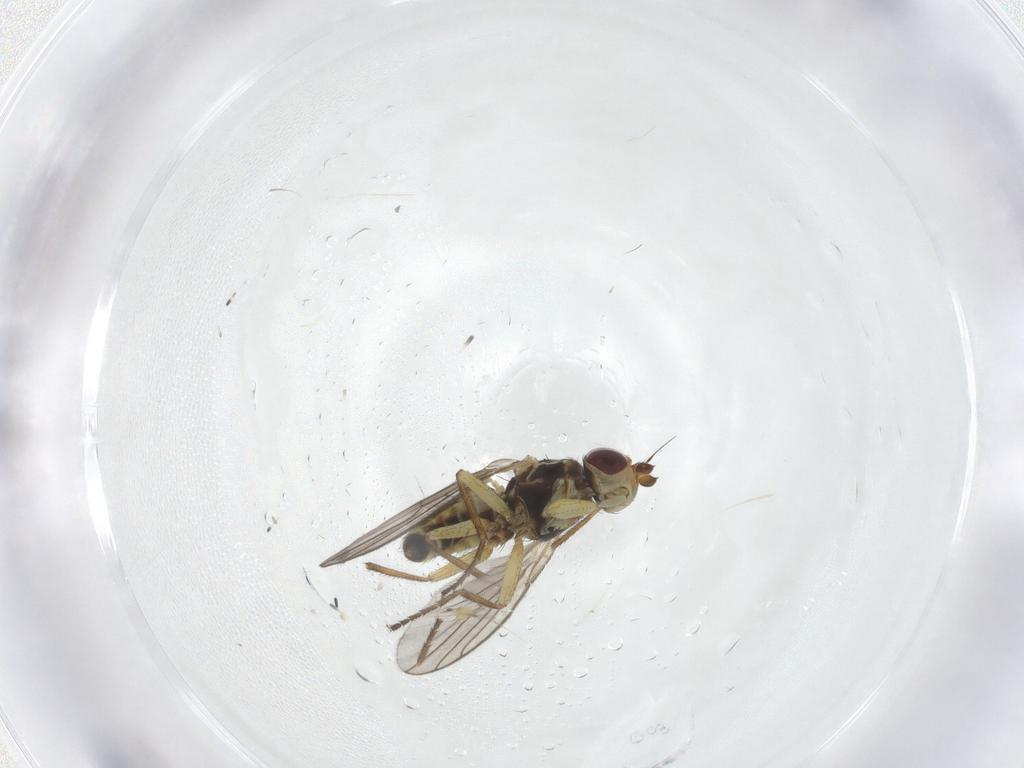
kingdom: Animalia
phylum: Arthropoda
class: Insecta
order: Diptera
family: Agromyzidae
